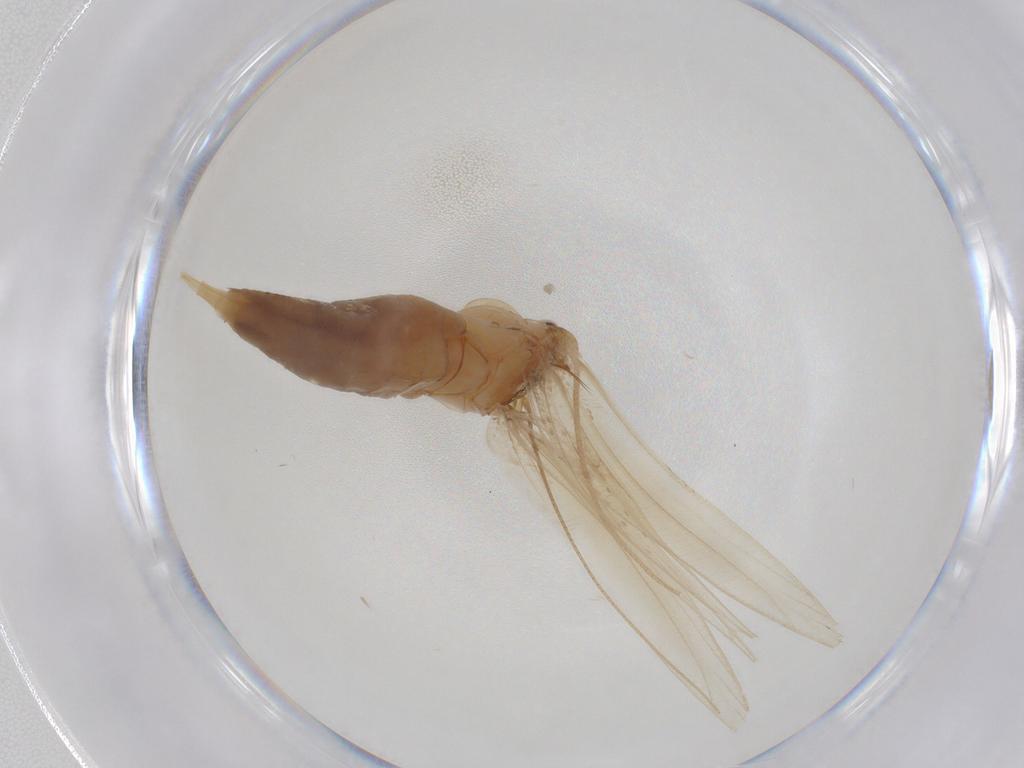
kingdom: Animalia
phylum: Arthropoda
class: Insecta
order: Lepidoptera
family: Tineidae
